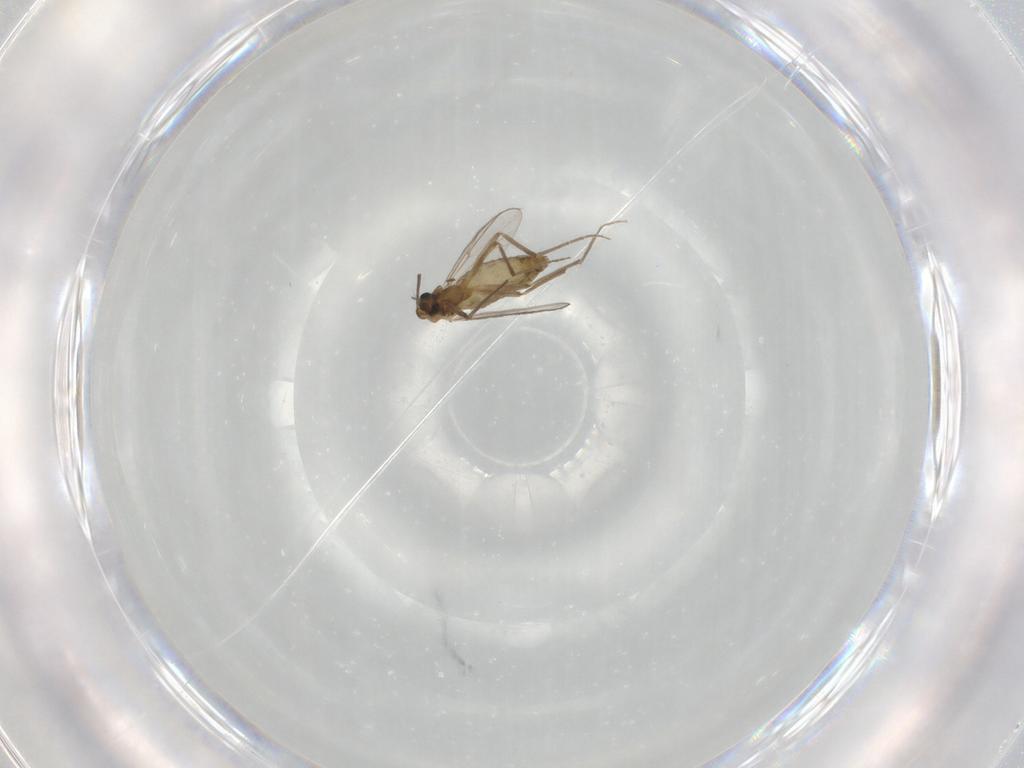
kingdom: Animalia
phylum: Arthropoda
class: Insecta
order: Diptera
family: Chironomidae
